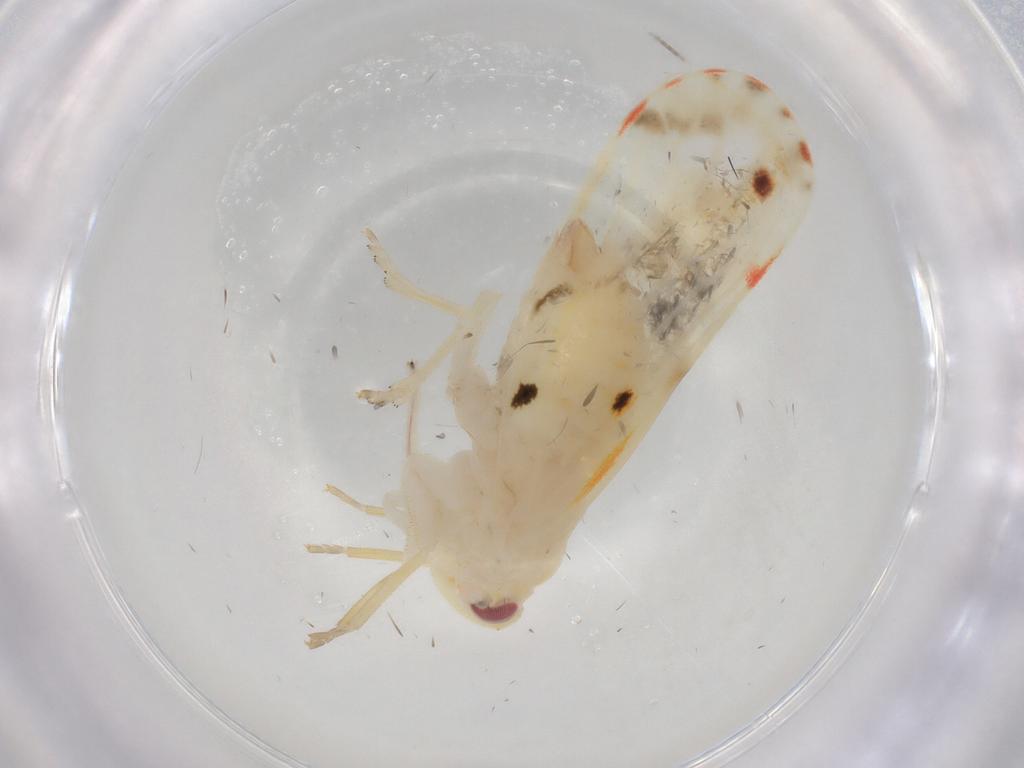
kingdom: Animalia
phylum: Arthropoda
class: Insecta
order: Hemiptera
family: Derbidae
